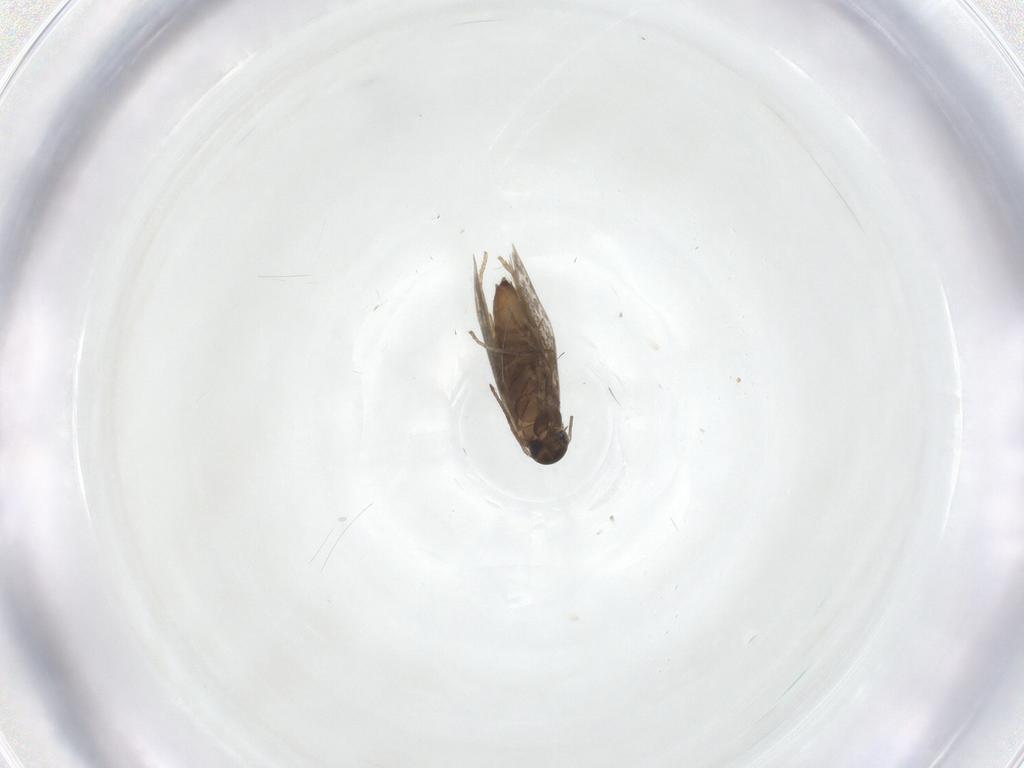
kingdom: Animalia
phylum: Arthropoda
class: Insecta
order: Lepidoptera
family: Heliozelidae
